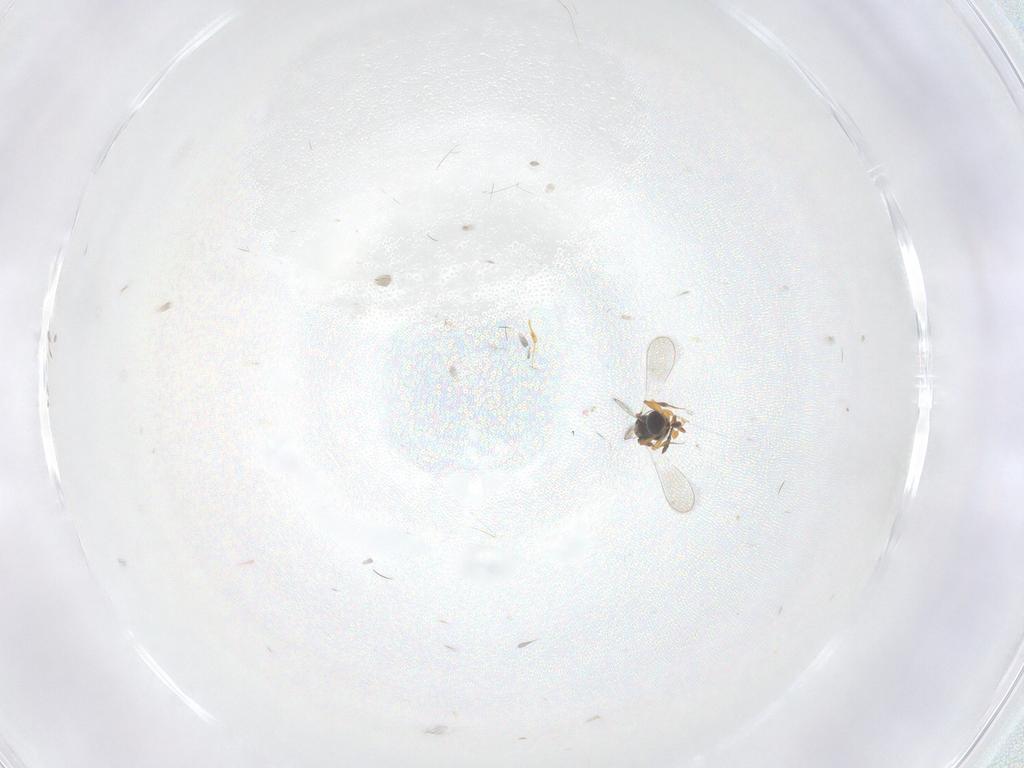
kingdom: Animalia
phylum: Arthropoda
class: Insecta
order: Hymenoptera
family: Platygastridae
